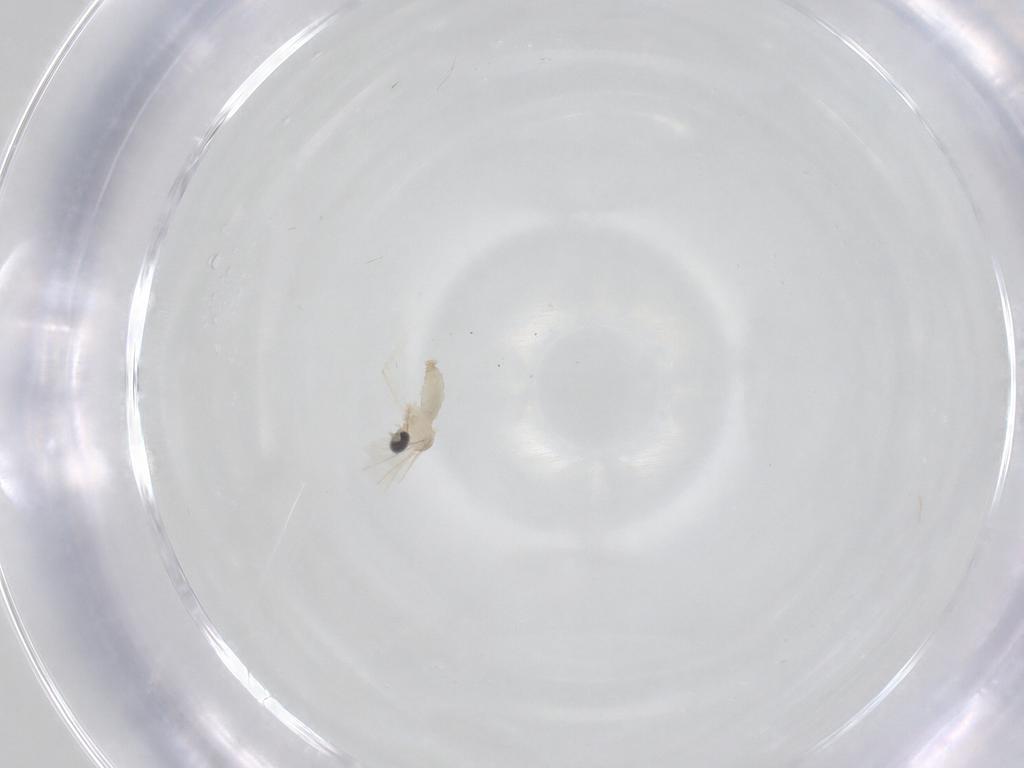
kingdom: Animalia
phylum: Arthropoda
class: Insecta
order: Diptera
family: Cecidomyiidae
